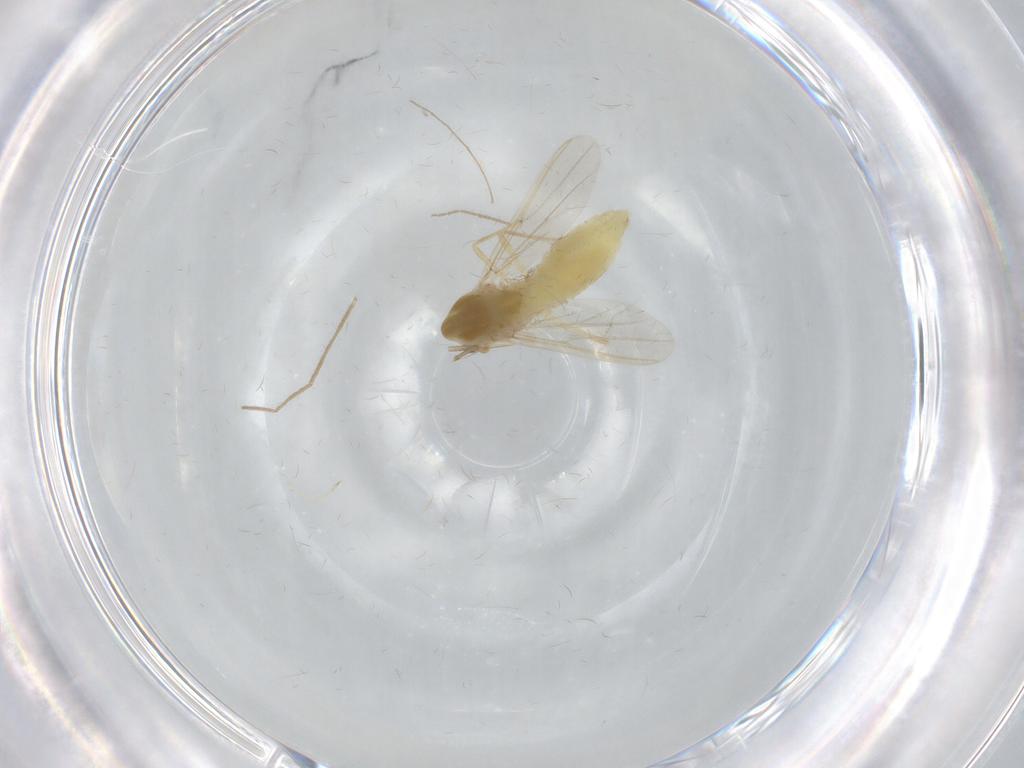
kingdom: Animalia
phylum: Arthropoda
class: Insecta
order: Diptera
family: Chironomidae
